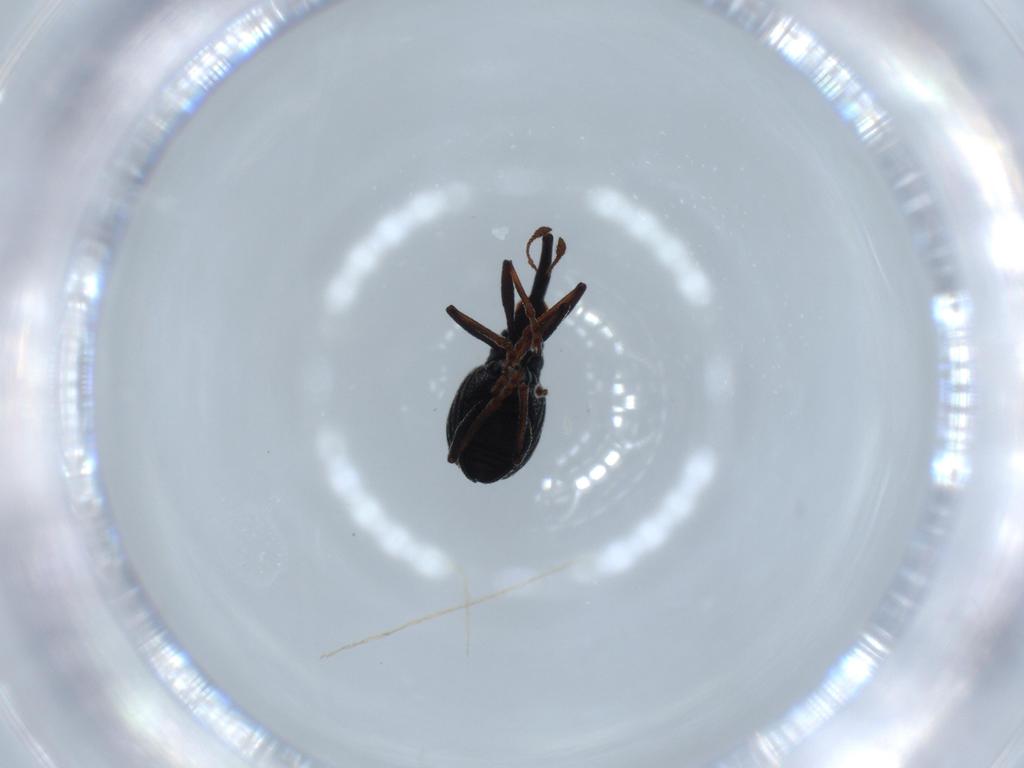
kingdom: Animalia
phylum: Arthropoda
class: Insecta
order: Coleoptera
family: Brentidae
